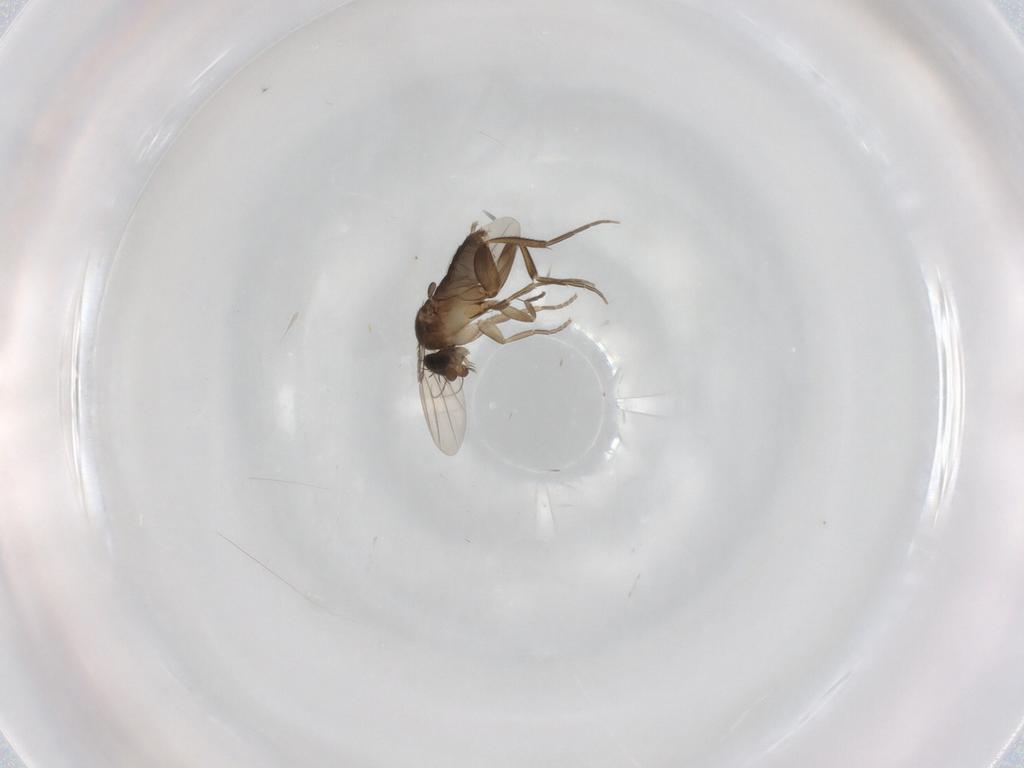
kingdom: Animalia
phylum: Arthropoda
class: Insecta
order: Diptera
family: Phoridae
